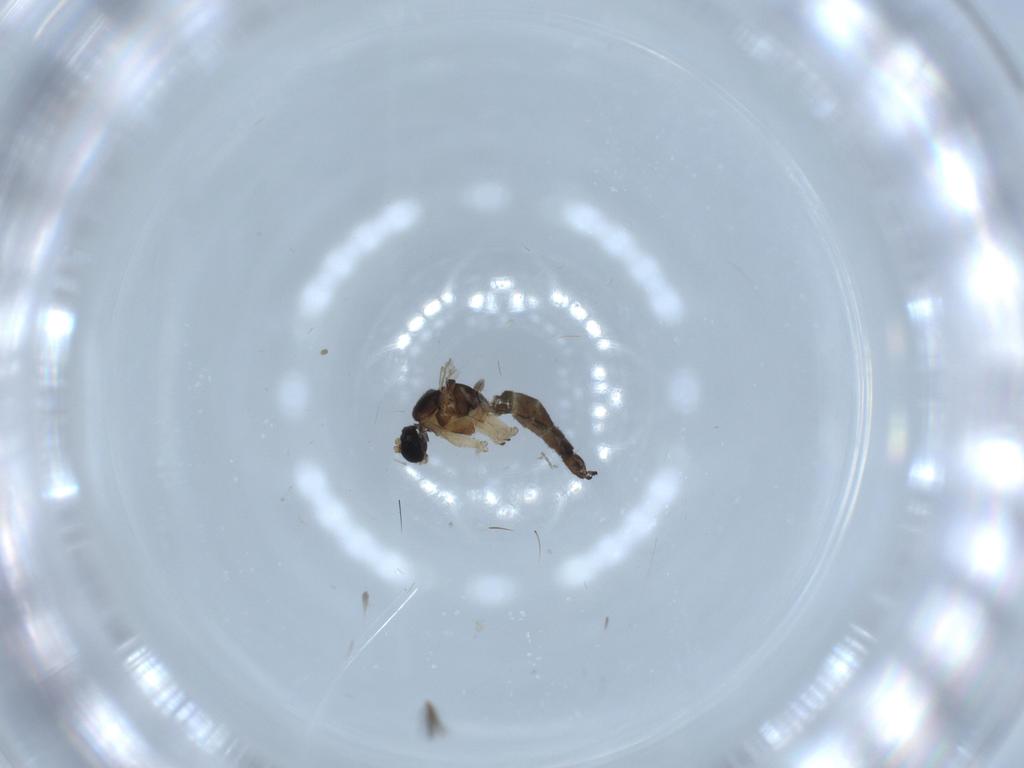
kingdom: Animalia
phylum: Arthropoda
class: Insecta
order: Diptera
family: Sciaridae
